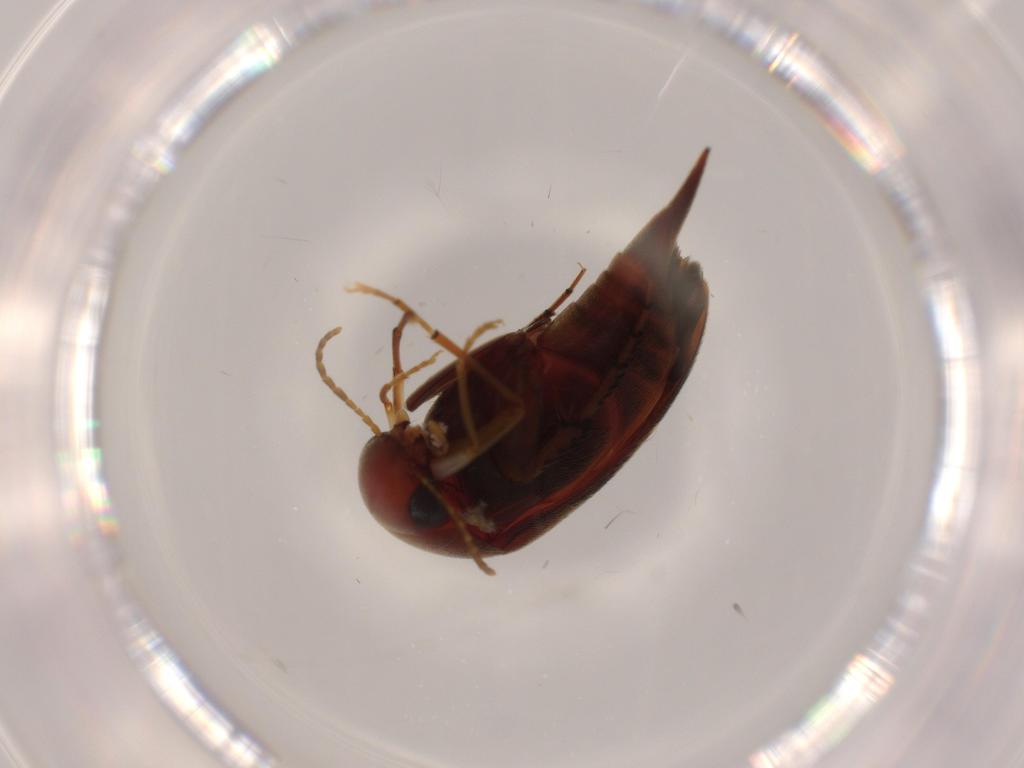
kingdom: Animalia
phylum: Arthropoda
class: Insecta
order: Coleoptera
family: Mordellidae
